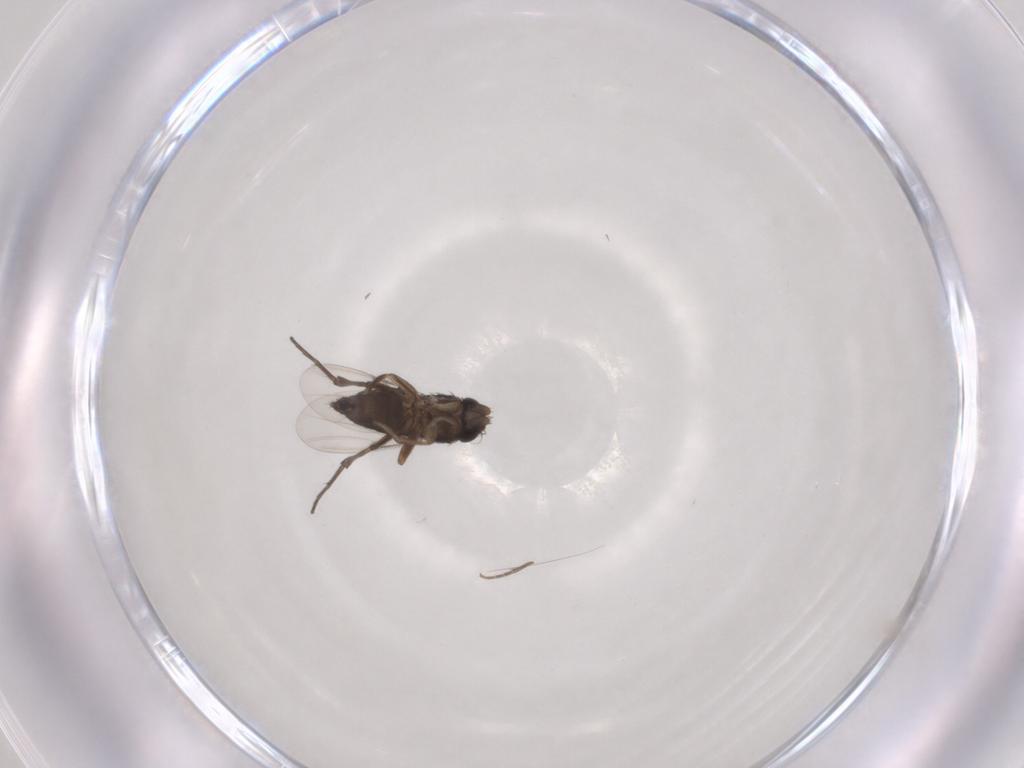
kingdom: Animalia
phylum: Arthropoda
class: Insecta
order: Diptera
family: Phoridae
